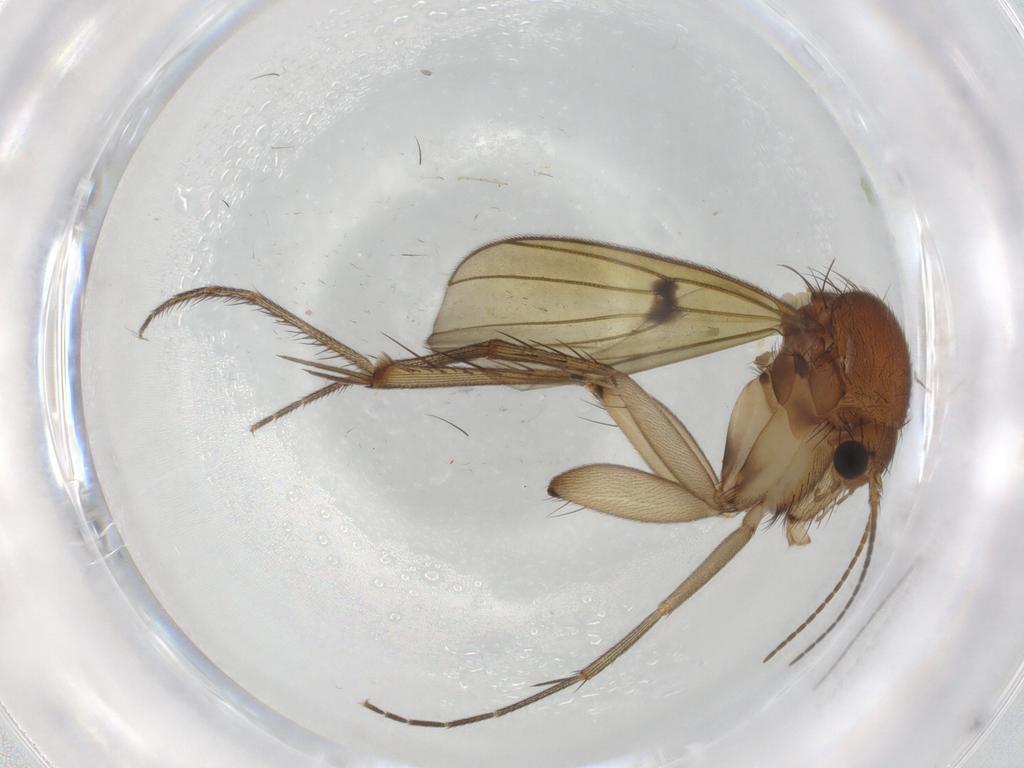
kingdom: Animalia
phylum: Arthropoda
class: Insecta
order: Diptera
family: Mycetophilidae
